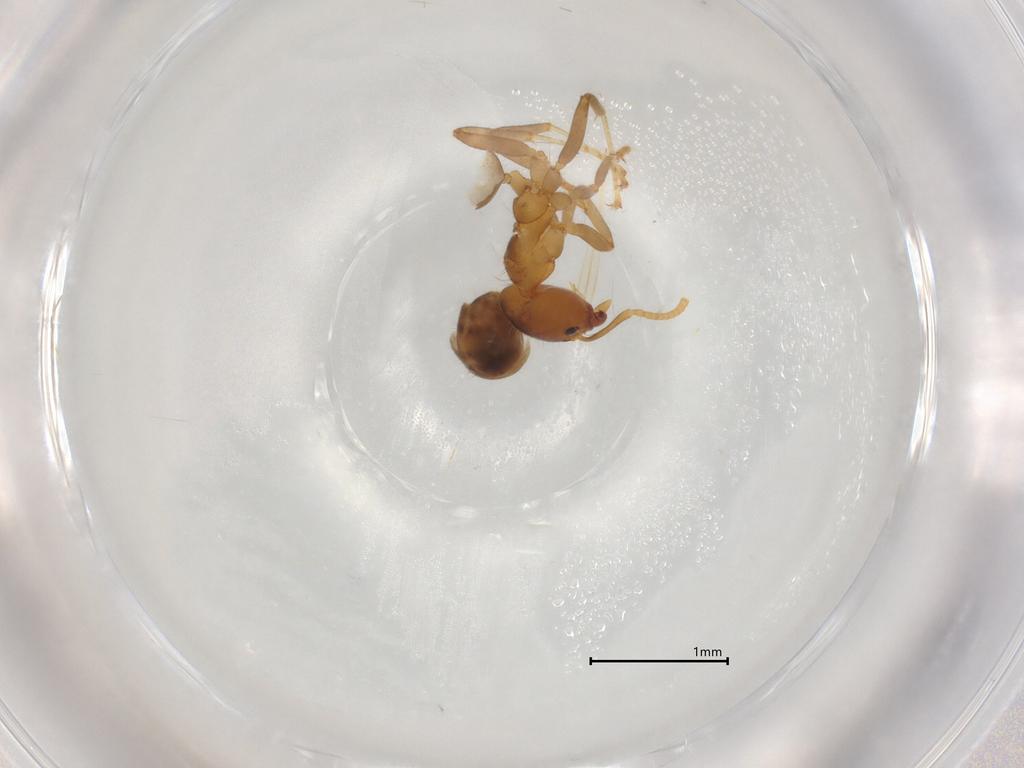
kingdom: Animalia
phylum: Arthropoda
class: Insecta
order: Hymenoptera
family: Formicidae
